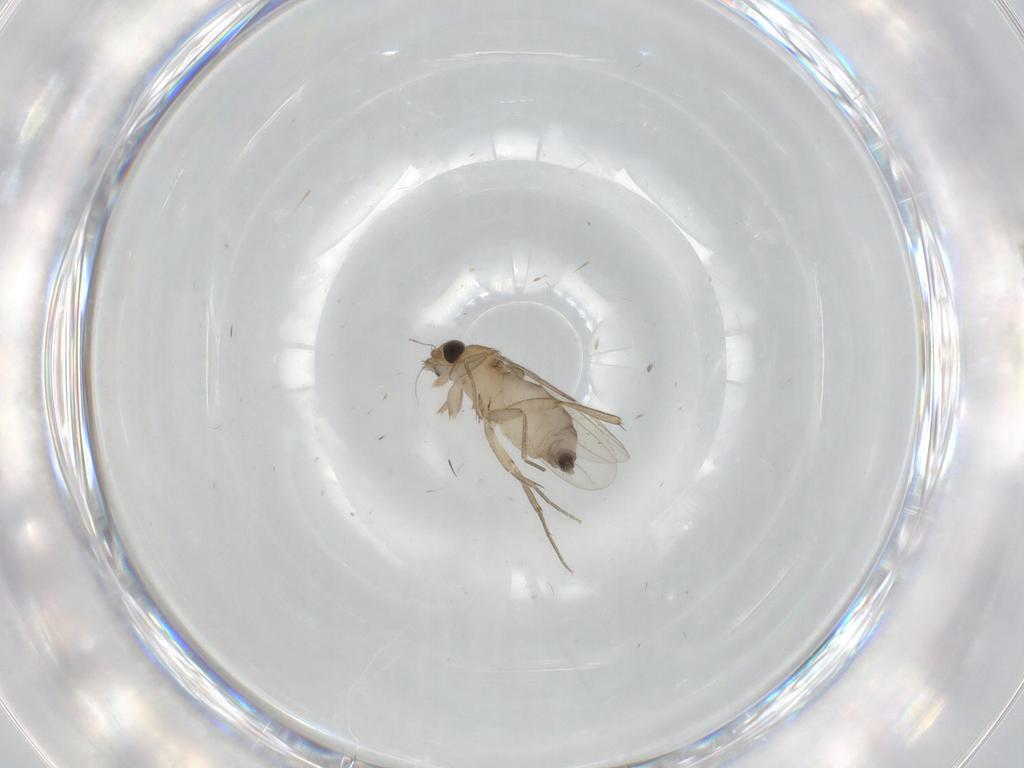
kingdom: Animalia
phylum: Arthropoda
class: Insecta
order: Diptera
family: Phoridae
